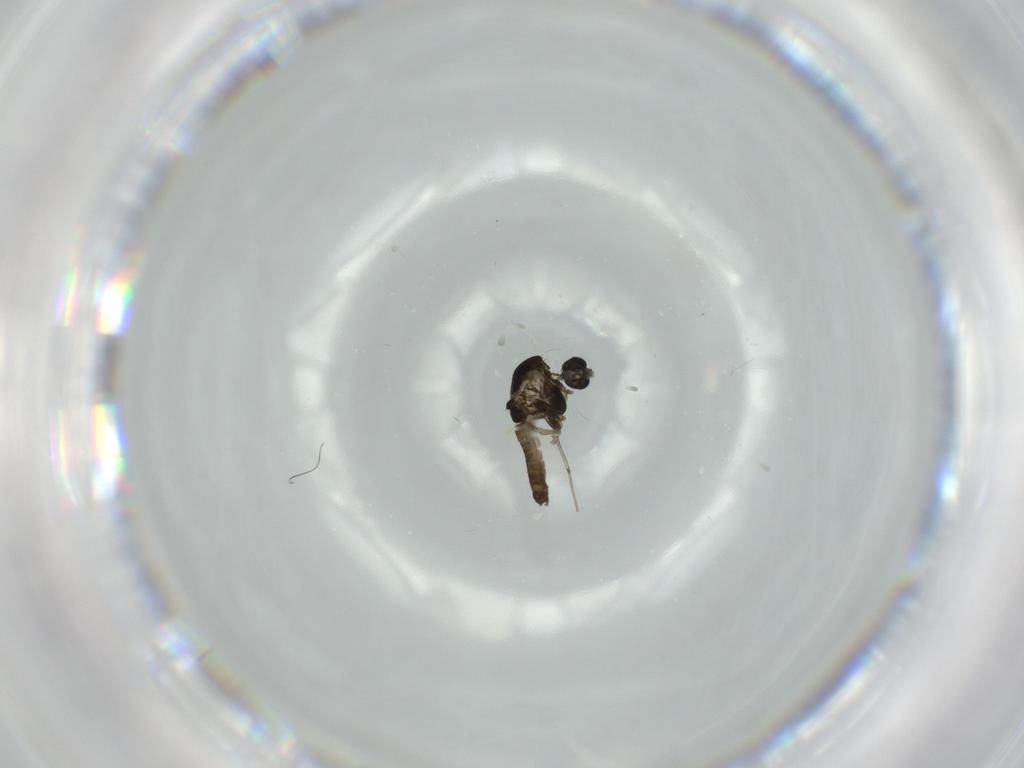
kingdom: Animalia
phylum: Arthropoda
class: Insecta
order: Diptera
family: Chironomidae
